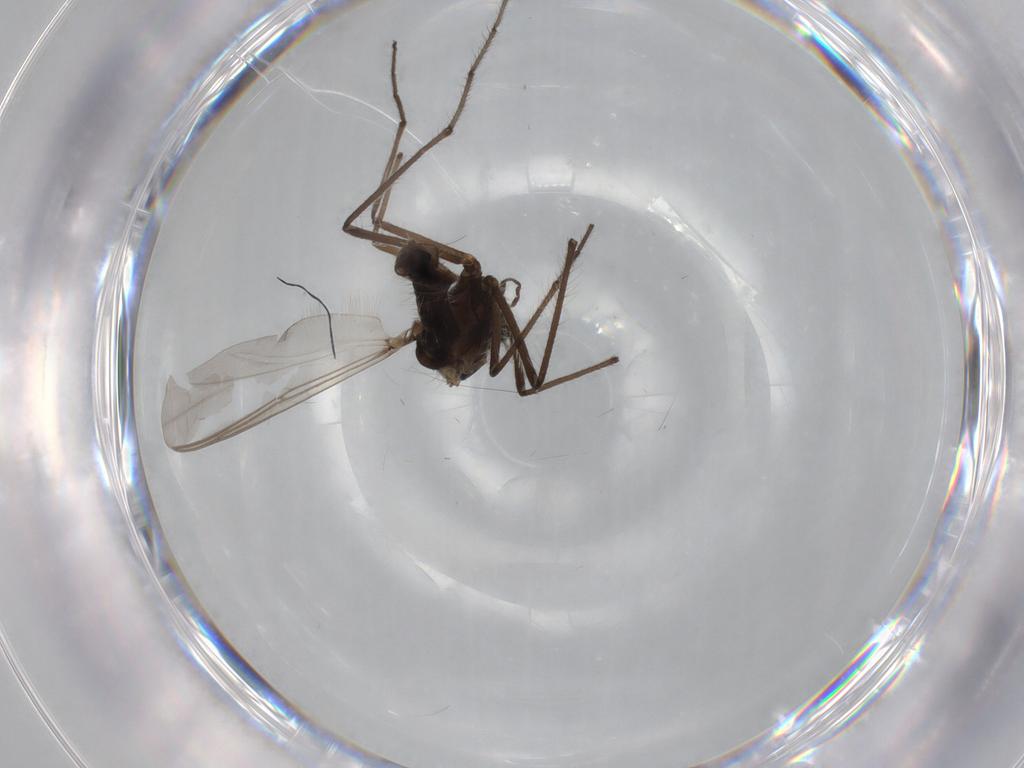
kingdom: Animalia
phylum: Arthropoda
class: Insecta
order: Diptera
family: Chironomidae
